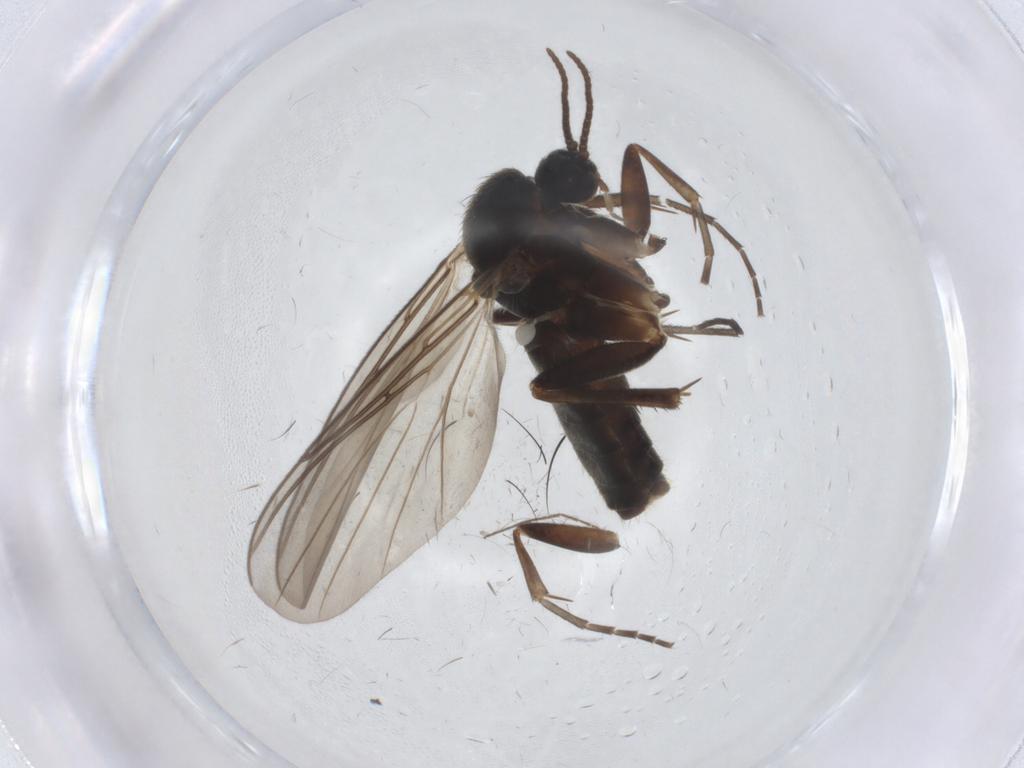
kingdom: Animalia
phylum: Arthropoda
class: Insecta
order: Diptera
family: Mycetophilidae
